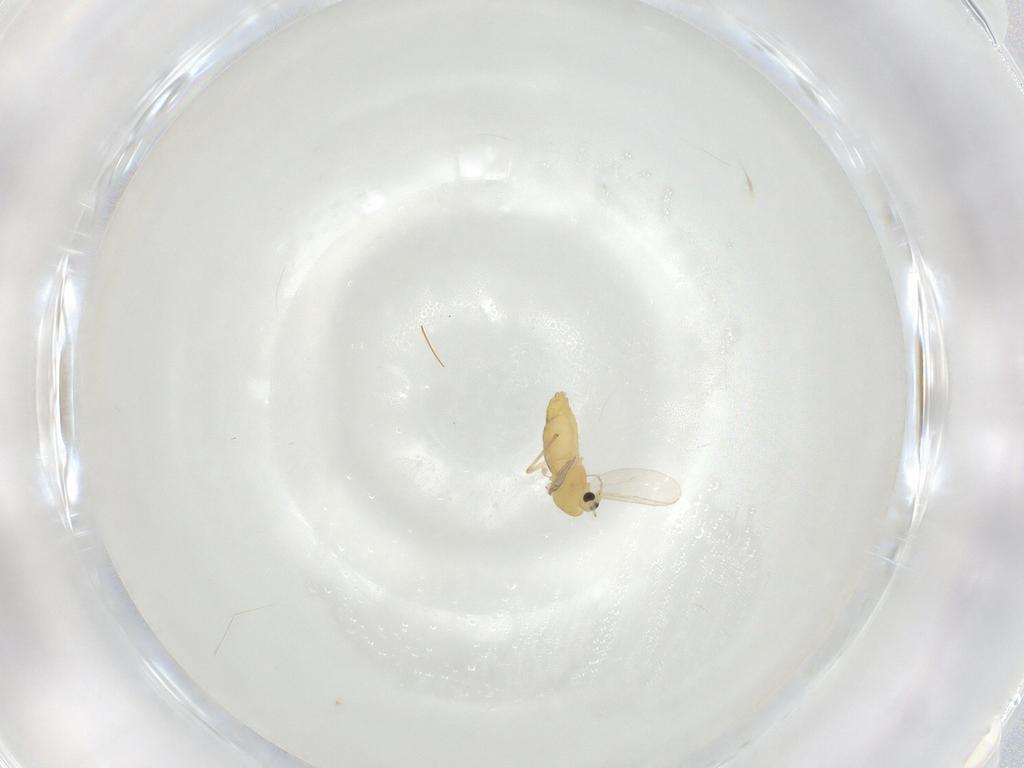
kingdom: Animalia
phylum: Arthropoda
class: Insecta
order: Diptera
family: Chironomidae
